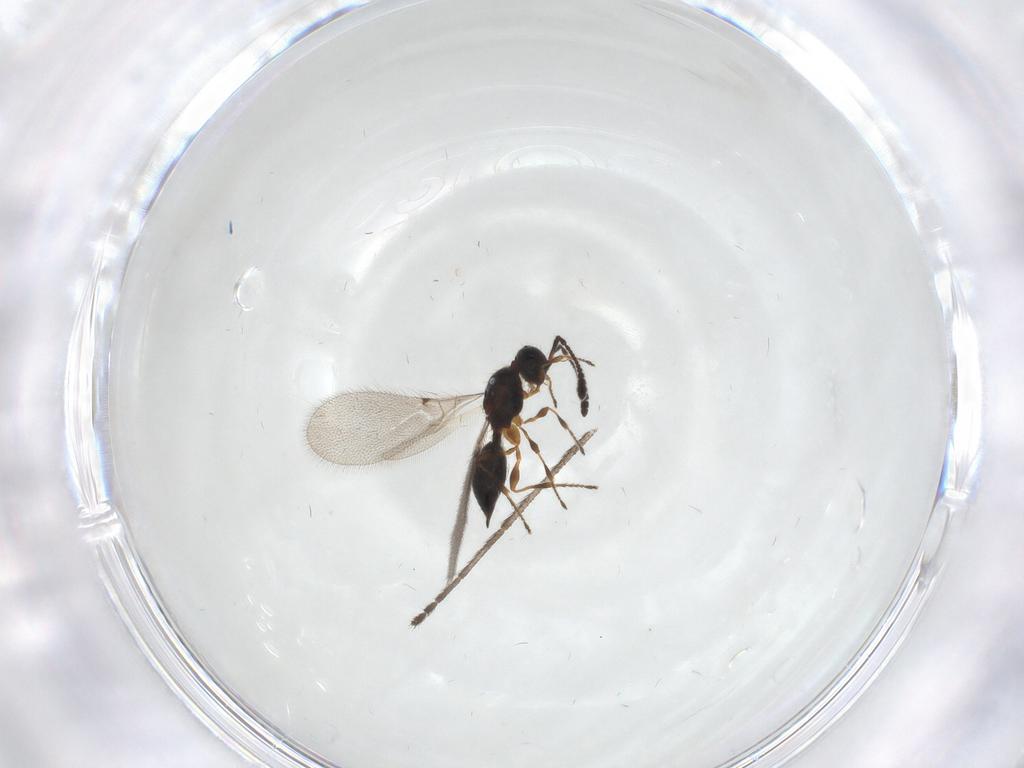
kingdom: Animalia
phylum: Arthropoda
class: Insecta
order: Hymenoptera
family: Diapriidae
